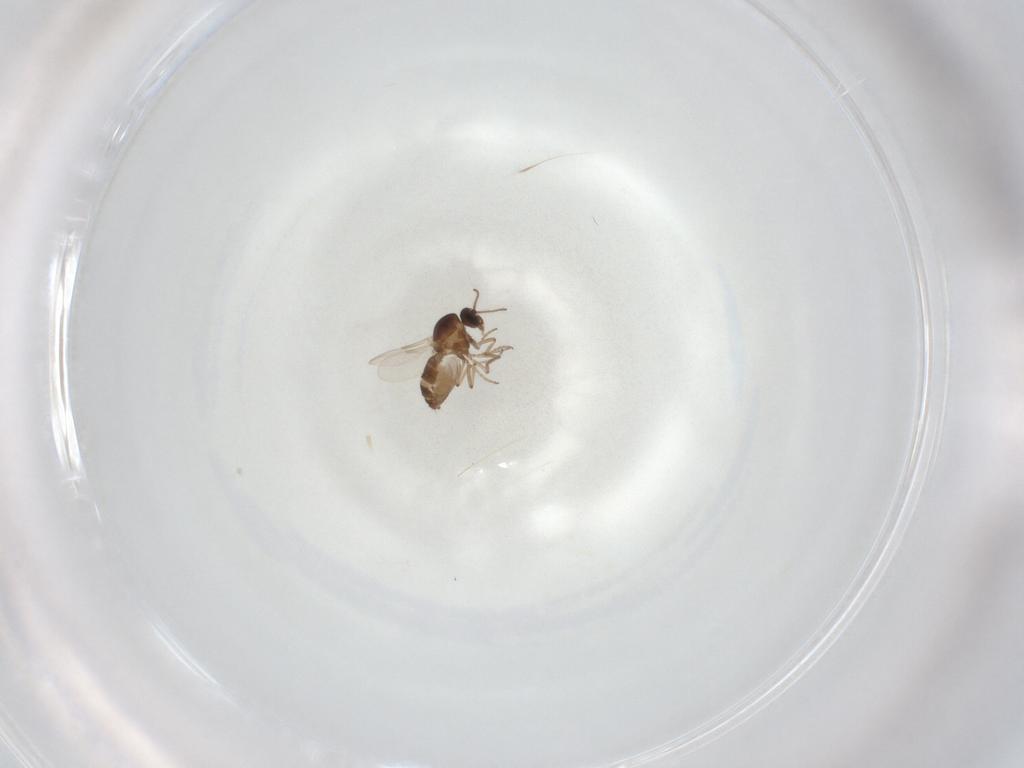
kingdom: Animalia
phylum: Arthropoda
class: Insecta
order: Diptera
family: Ceratopogonidae
